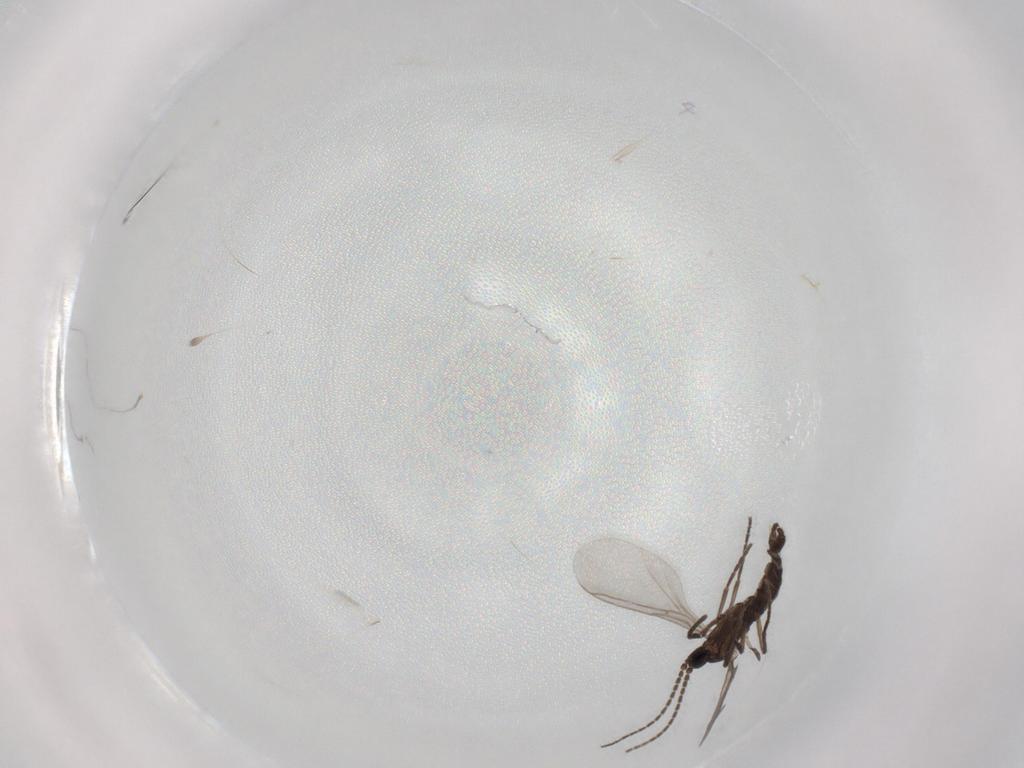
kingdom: Animalia
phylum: Arthropoda
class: Insecta
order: Diptera
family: Sciaridae
